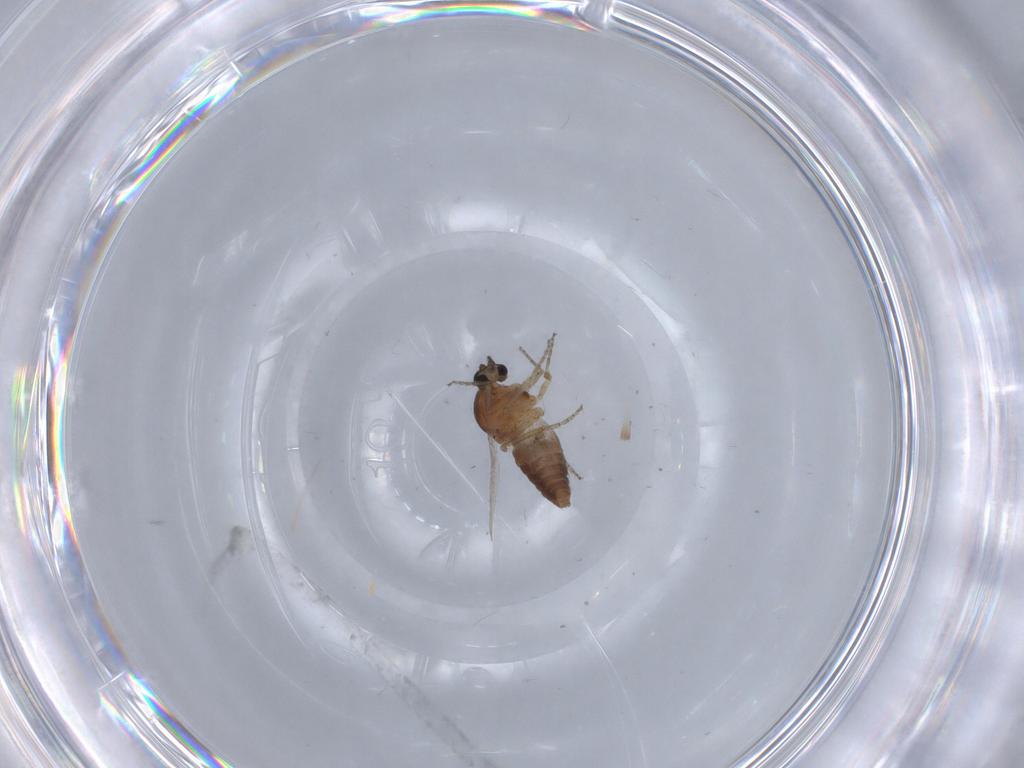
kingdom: Animalia
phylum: Arthropoda
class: Insecta
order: Diptera
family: Ceratopogonidae
